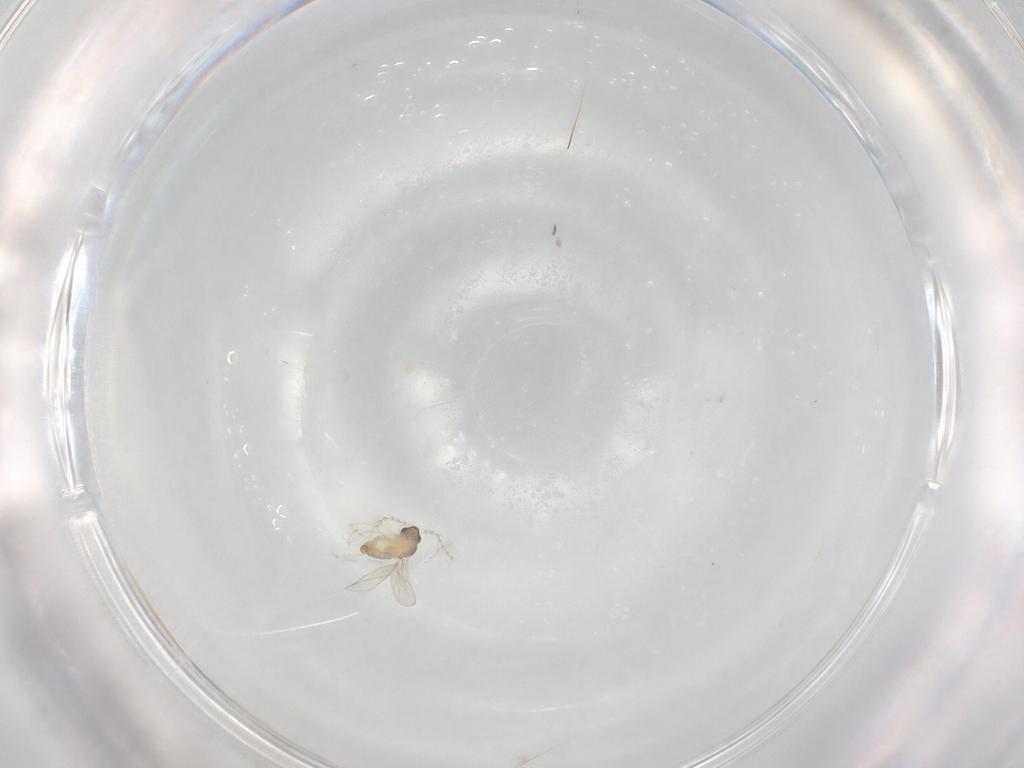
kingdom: Animalia
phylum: Arthropoda
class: Insecta
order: Diptera
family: Cecidomyiidae
